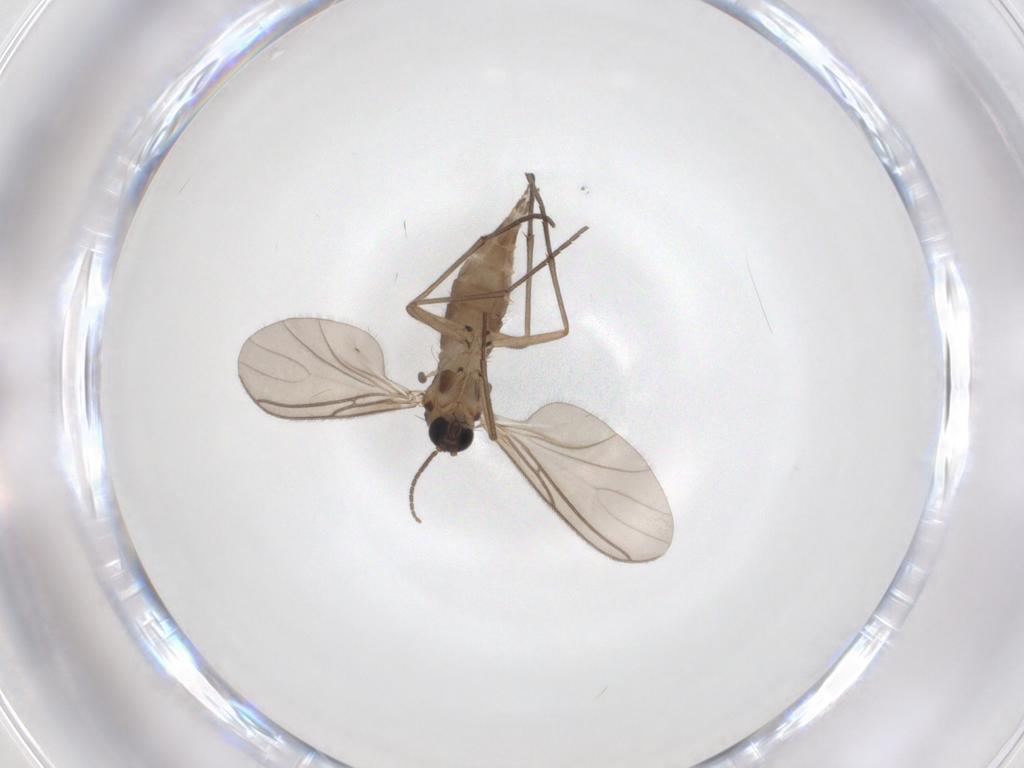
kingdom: Animalia
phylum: Arthropoda
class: Insecta
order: Diptera
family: Sciaridae
